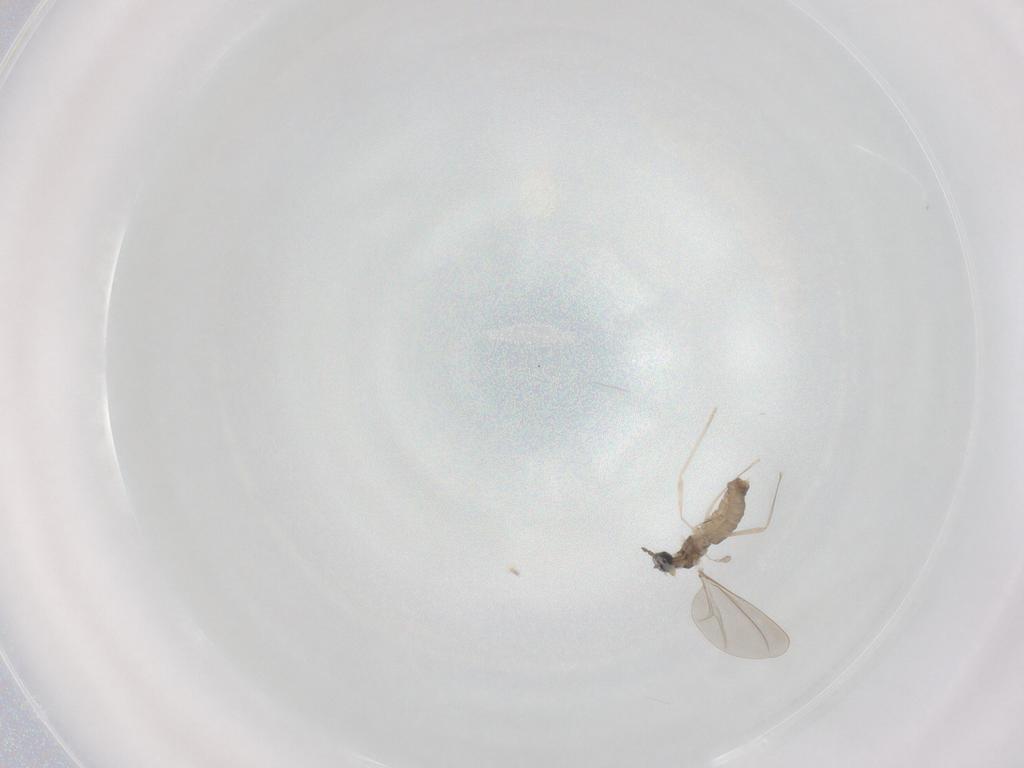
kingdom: Animalia
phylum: Arthropoda
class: Insecta
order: Diptera
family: Cecidomyiidae
